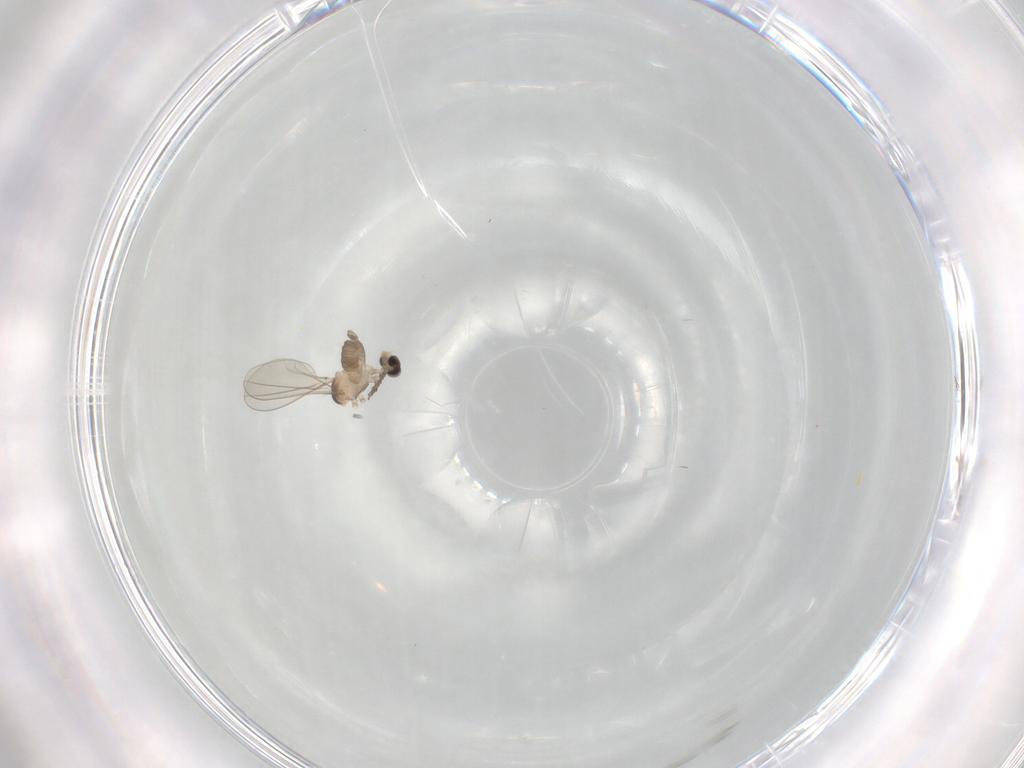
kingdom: Animalia
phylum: Arthropoda
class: Insecta
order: Diptera
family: Cecidomyiidae
